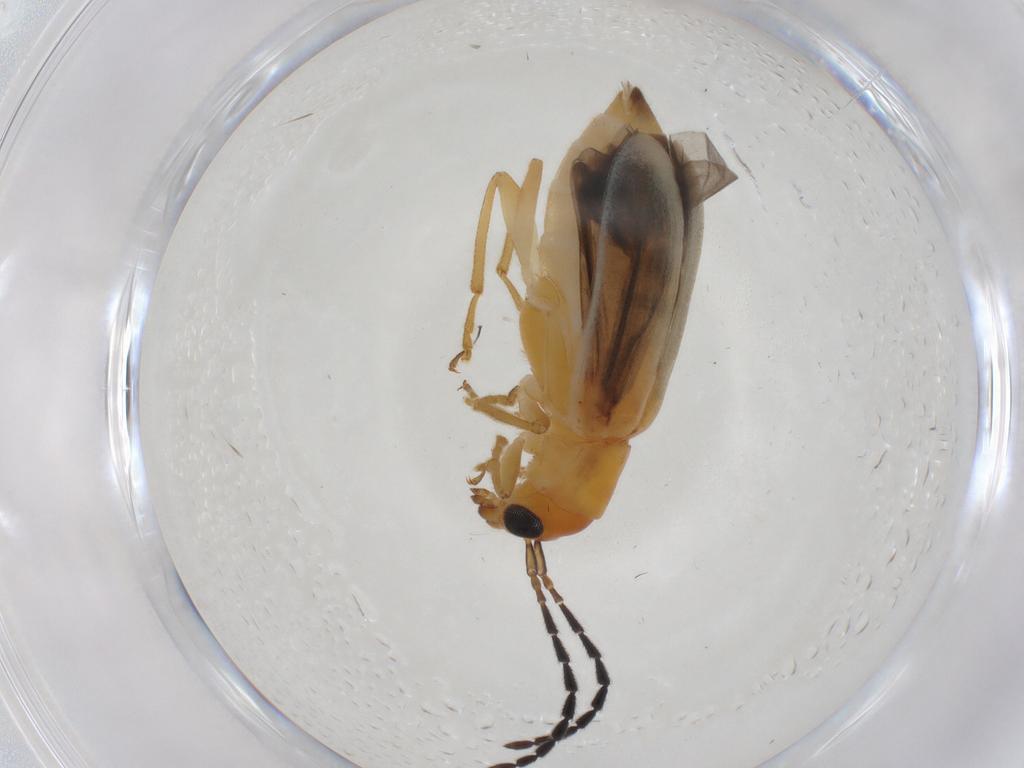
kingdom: Animalia
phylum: Arthropoda
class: Insecta
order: Coleoptera
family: Chrysomelidae
